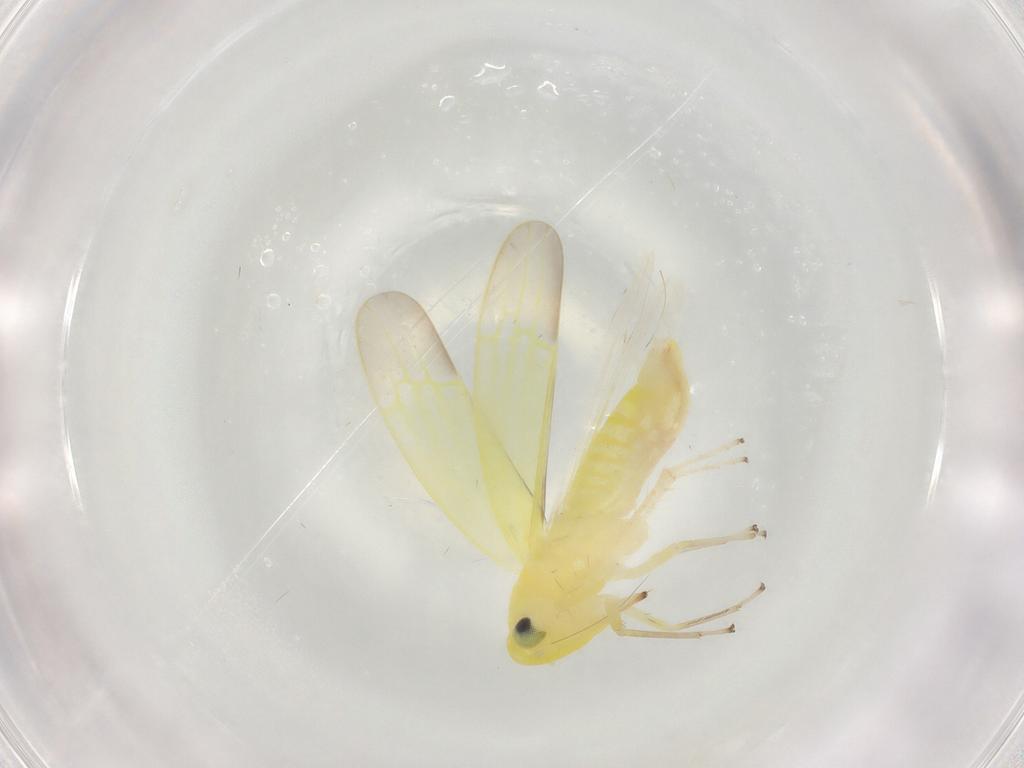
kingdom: Animalia
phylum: Arthropoda
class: Insecta
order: Hemiptera
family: Cicadellidae
